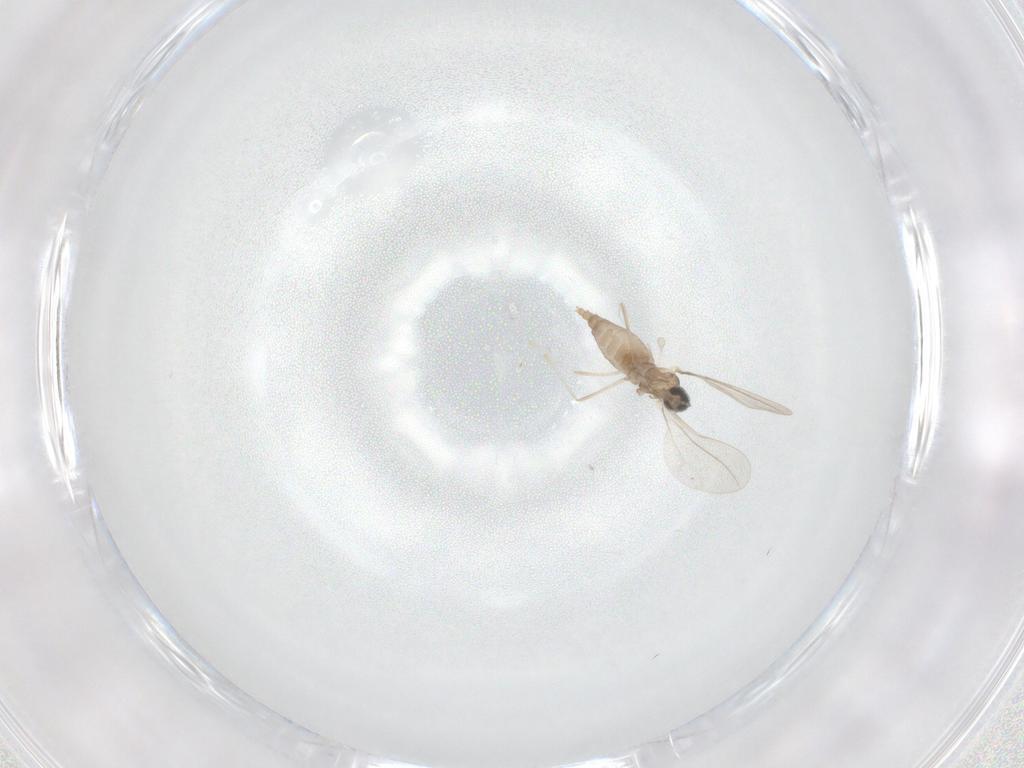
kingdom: Animalia
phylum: Arthropoda
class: Insecta
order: Diptera
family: Cecidomyiidae
